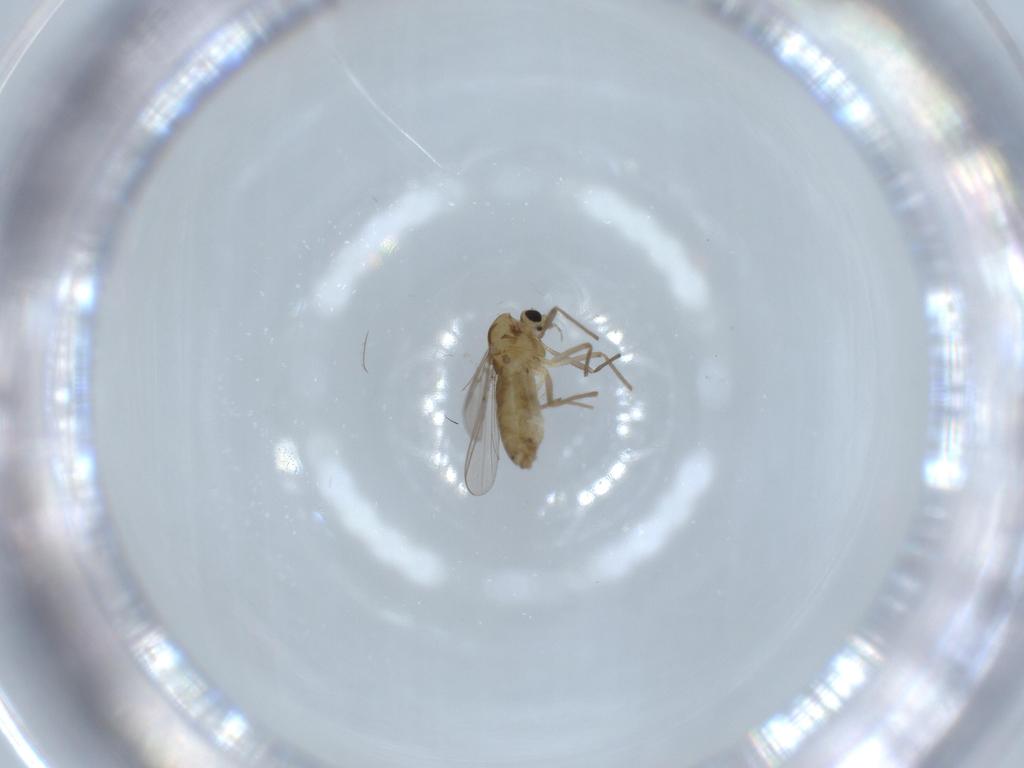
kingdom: Animalia
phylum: Arthropoda
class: Insecta
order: Diptera
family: Chironomidae
